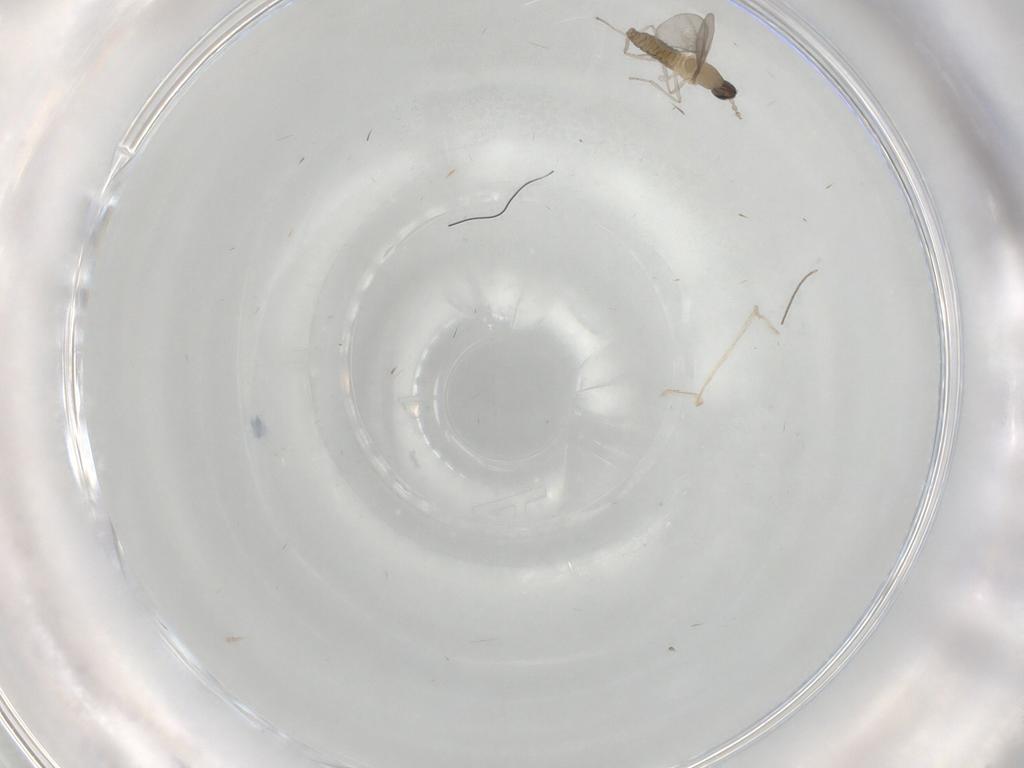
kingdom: Animalia
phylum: Arthropoda
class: Insecta
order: Diptera
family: Cecidomyiidae
